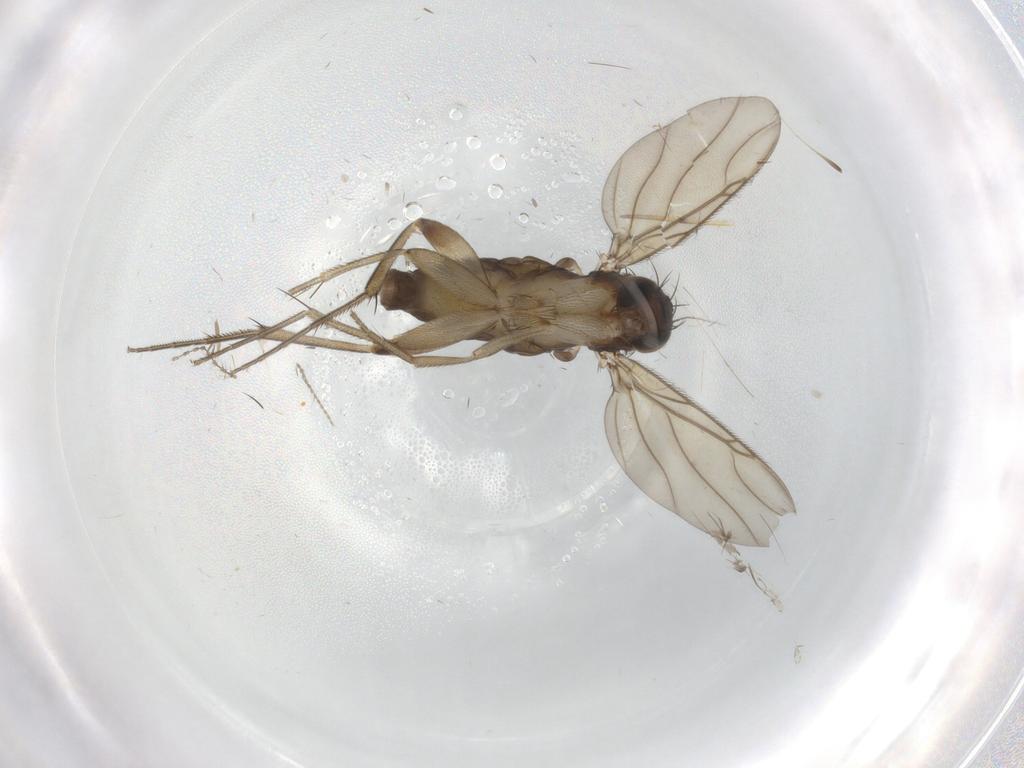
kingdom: Animalia
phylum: Arthropoda
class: Insecta
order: Diptera
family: Phoridae
